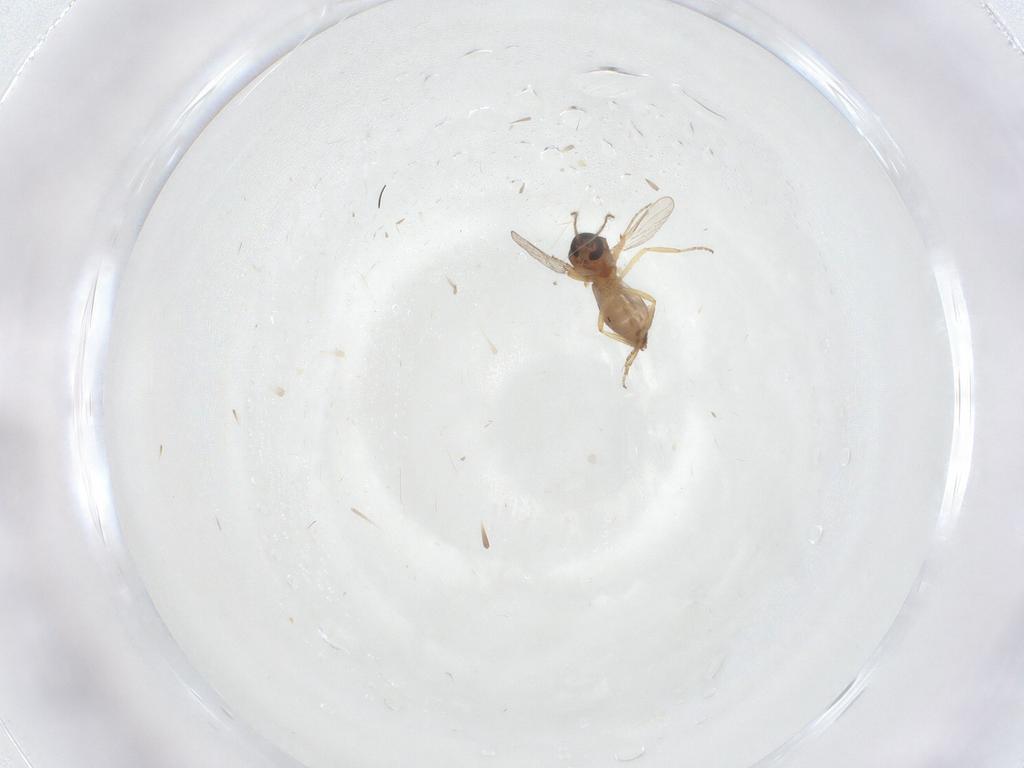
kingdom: Animalia
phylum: Arthropoda
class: Insecta
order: Diptera
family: Ceratopogonidae
